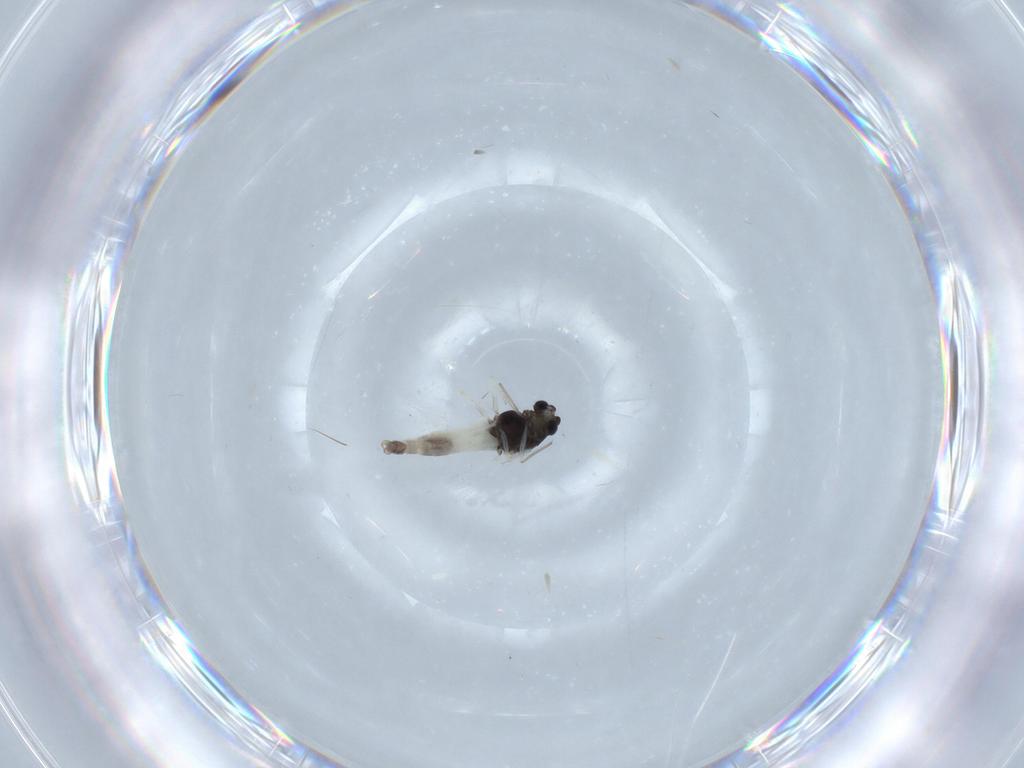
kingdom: Animalia
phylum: Arthropoda
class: Insecta
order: Diptera
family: Chironomidae
